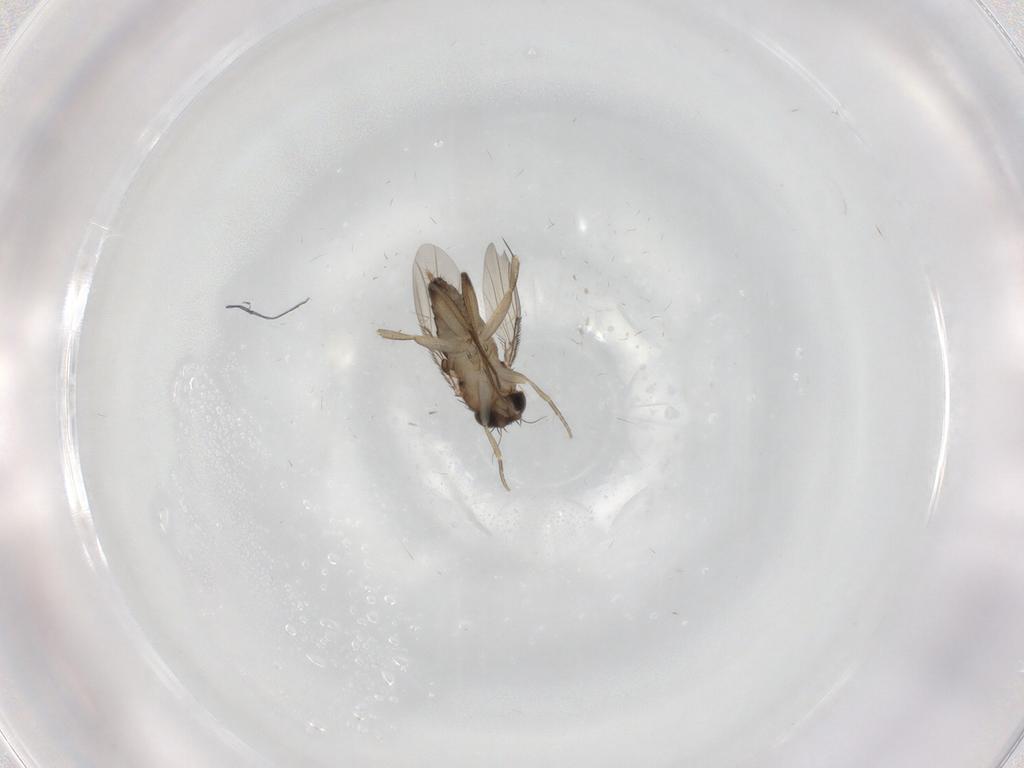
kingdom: Animalia
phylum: Arthropoda
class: Insecta
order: Diptera
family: Phoridae
